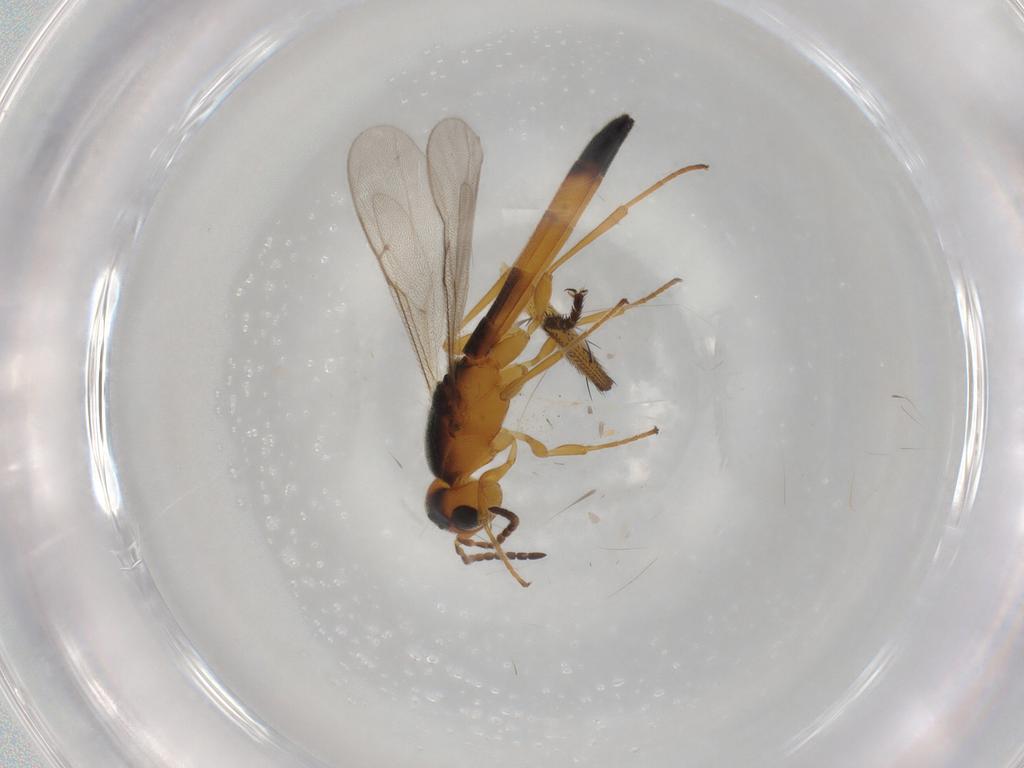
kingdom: Animalia
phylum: Arthropoda
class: Insecta
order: Hymenoptera
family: Scelionidae
